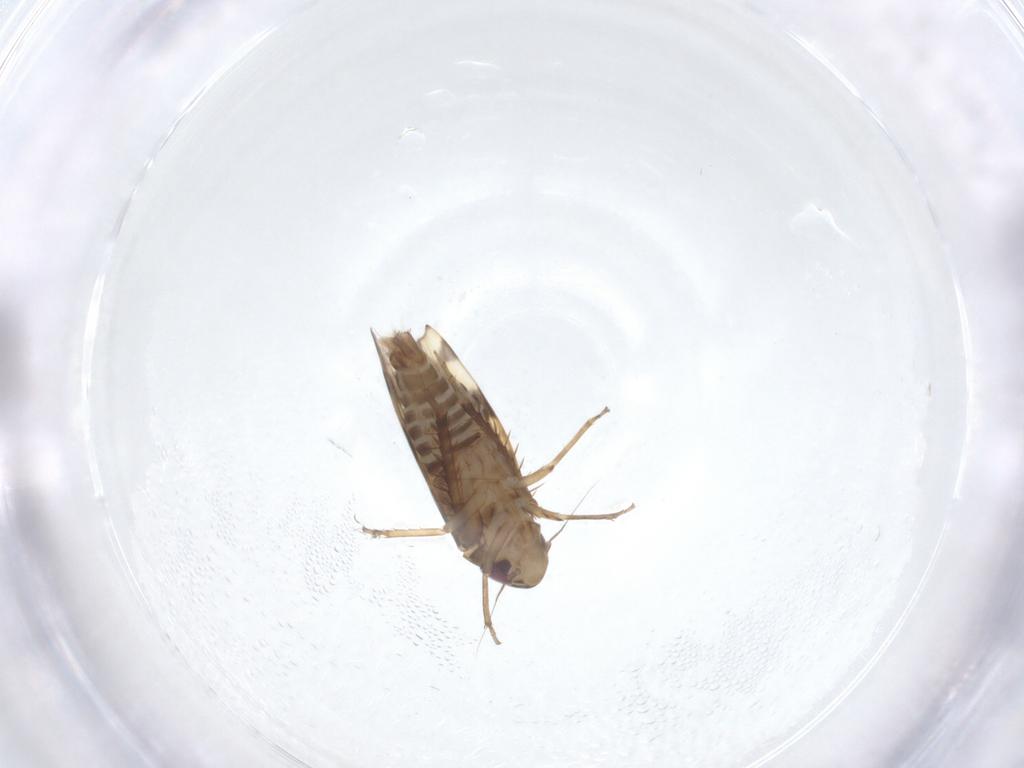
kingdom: Animalia
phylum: Arthropoda
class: Insecta
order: Hemiptera
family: Cicadellidae
